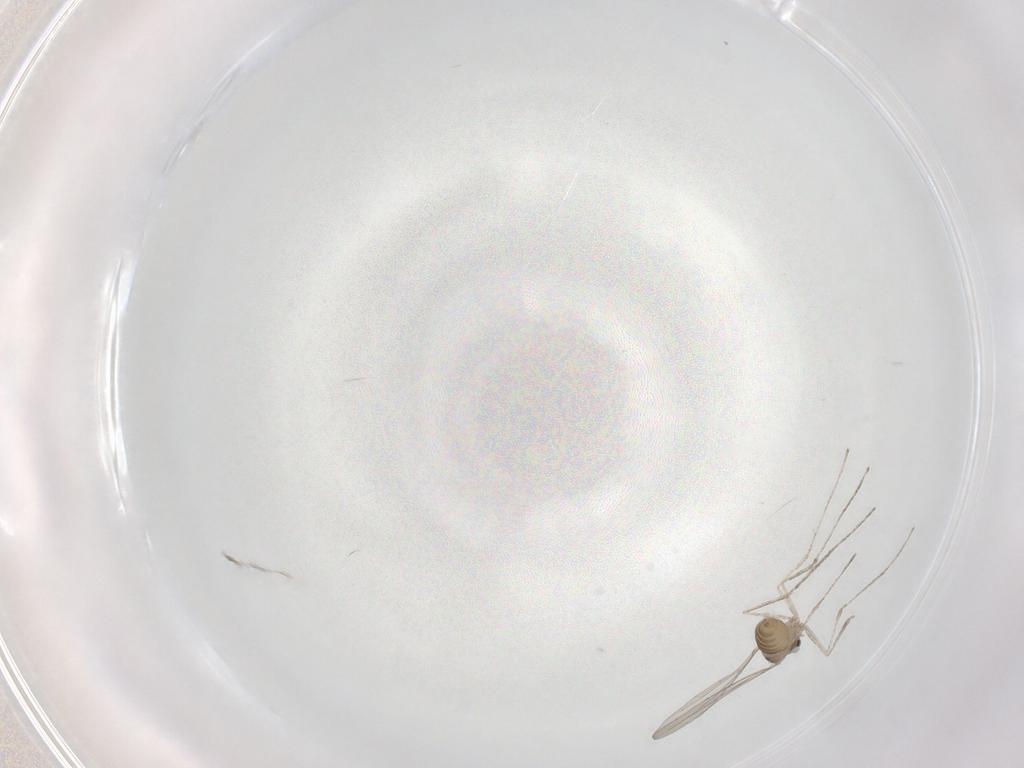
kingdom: Animalia
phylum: Arthropoda
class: Insecta
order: Diptera
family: Cecidomyiidae
